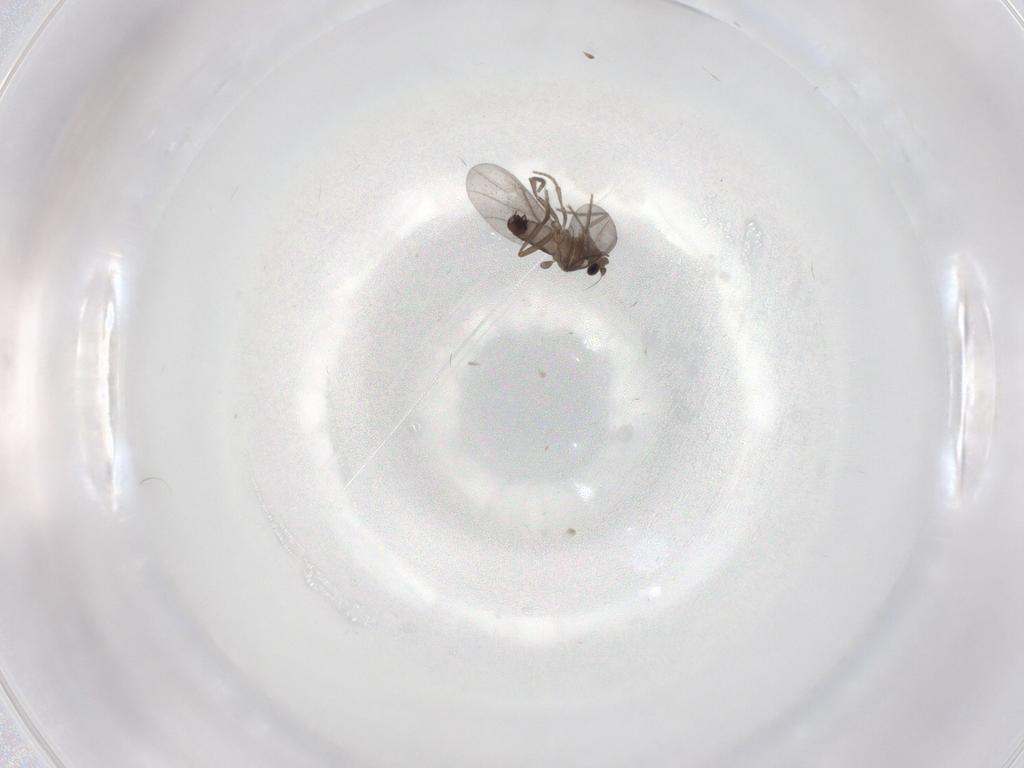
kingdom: Animalia
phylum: Arthropoda
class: Insecta
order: Diptera
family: Phoridae
